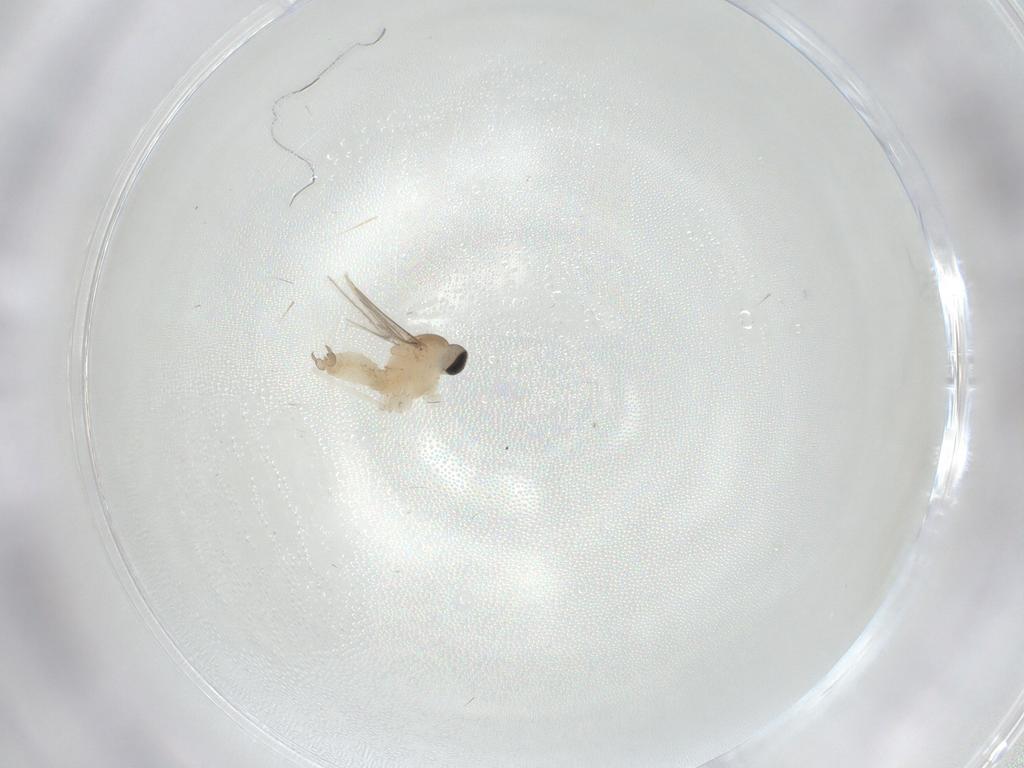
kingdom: Animalia
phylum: Arthropoda
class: Insecta
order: Diptera
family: Cecidomyiidae
